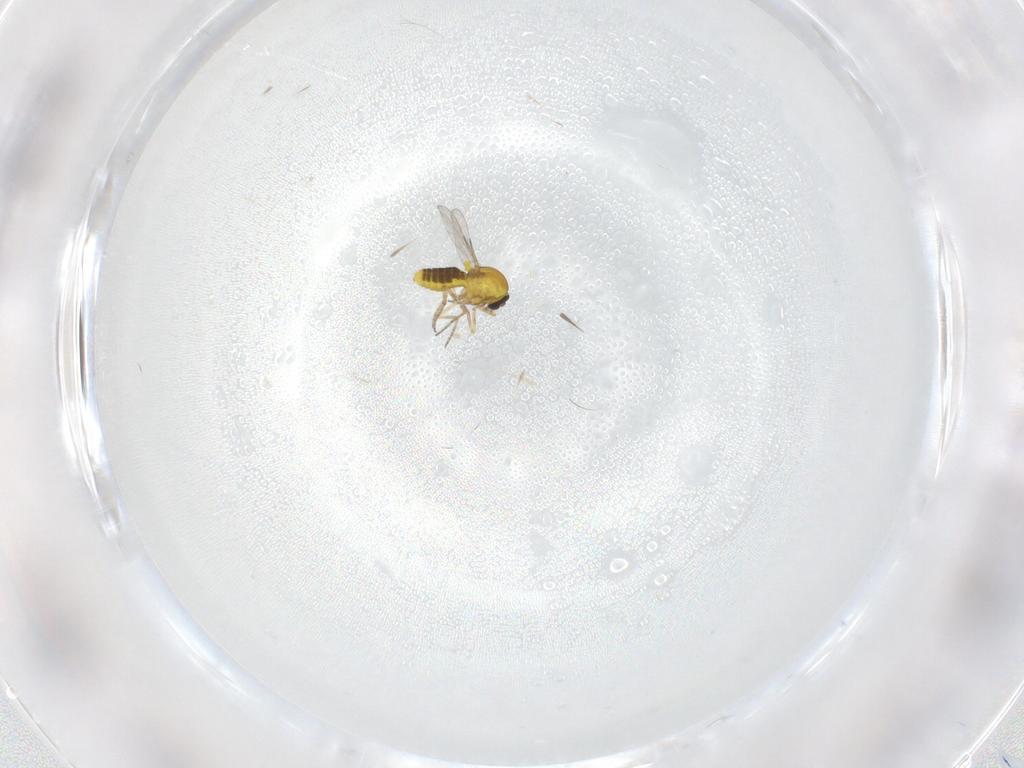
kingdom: Animalia
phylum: Arthropoda
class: Insecta
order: Diptera
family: Ceratopogonidae
